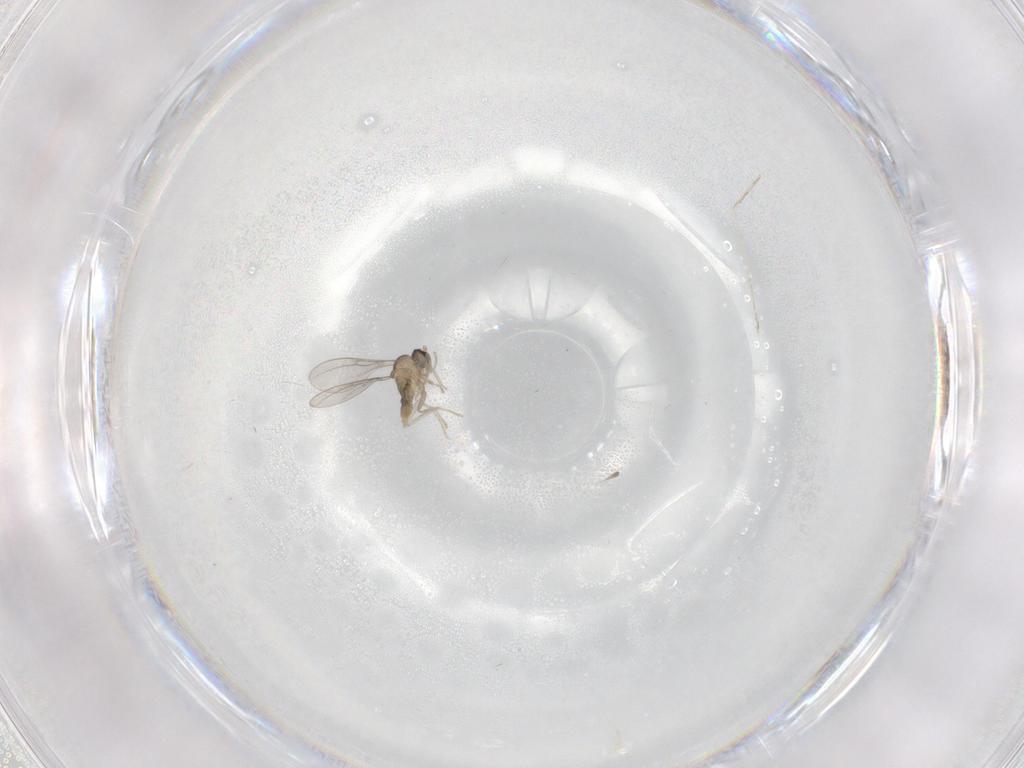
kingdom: Animalia
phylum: Arthropoda
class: Insecta
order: Diptera
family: Cecidomyiidae
